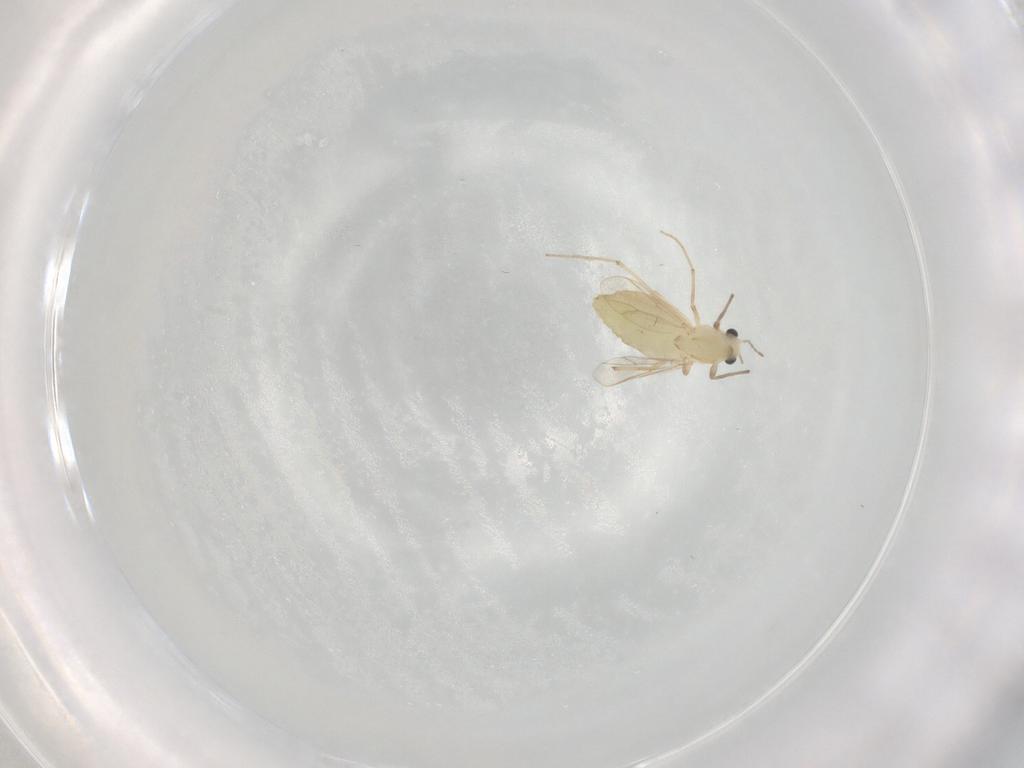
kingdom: Animalia
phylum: Arthropoda
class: Insecta
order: Diptera
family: Chironomidae
